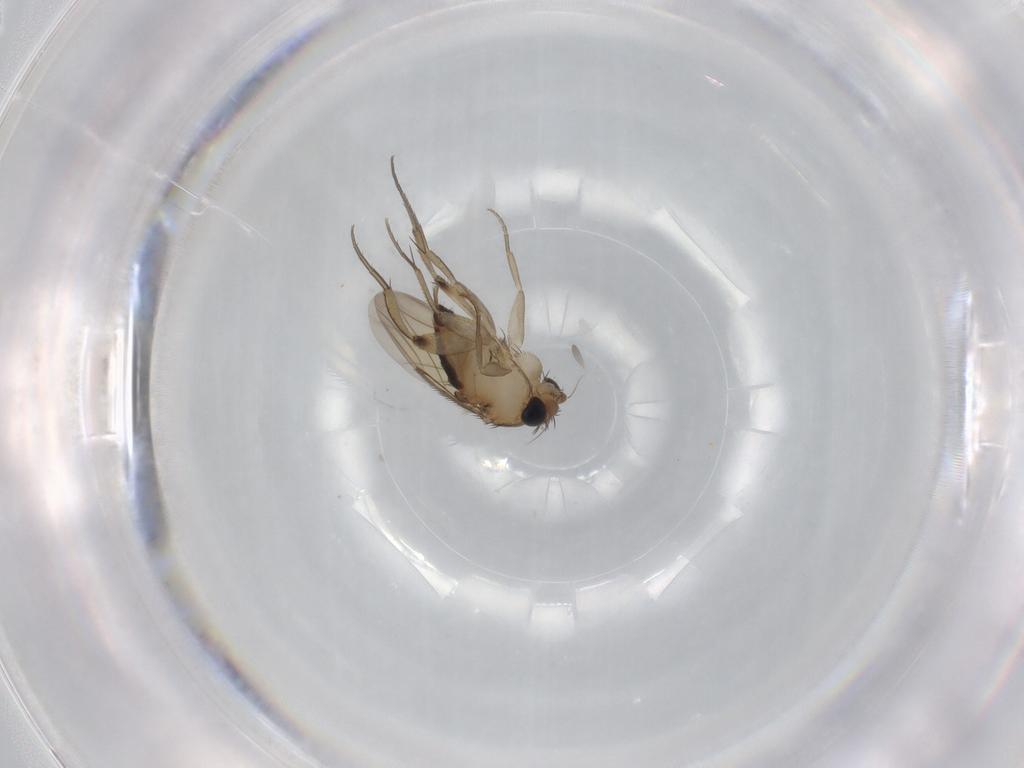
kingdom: Animalia
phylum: Arthropoda
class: Insecta
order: Diptera
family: Phoridae
